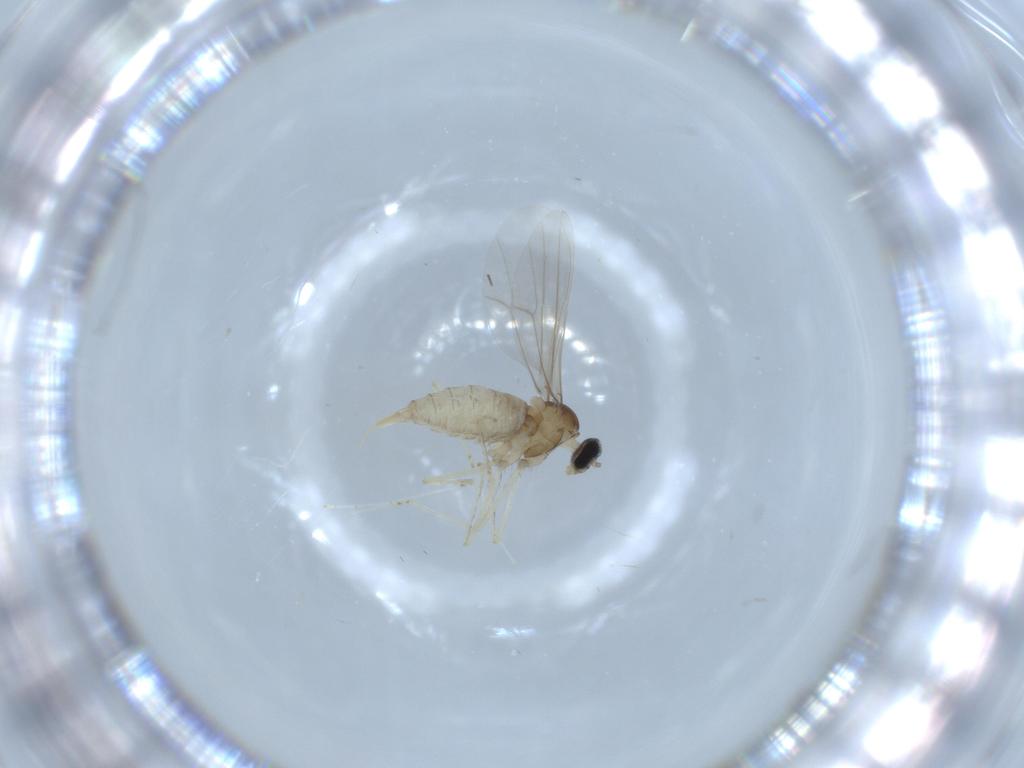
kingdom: Animalia
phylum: Arthropoda
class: Insecta
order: Diptera
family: Cecidomyiidae
